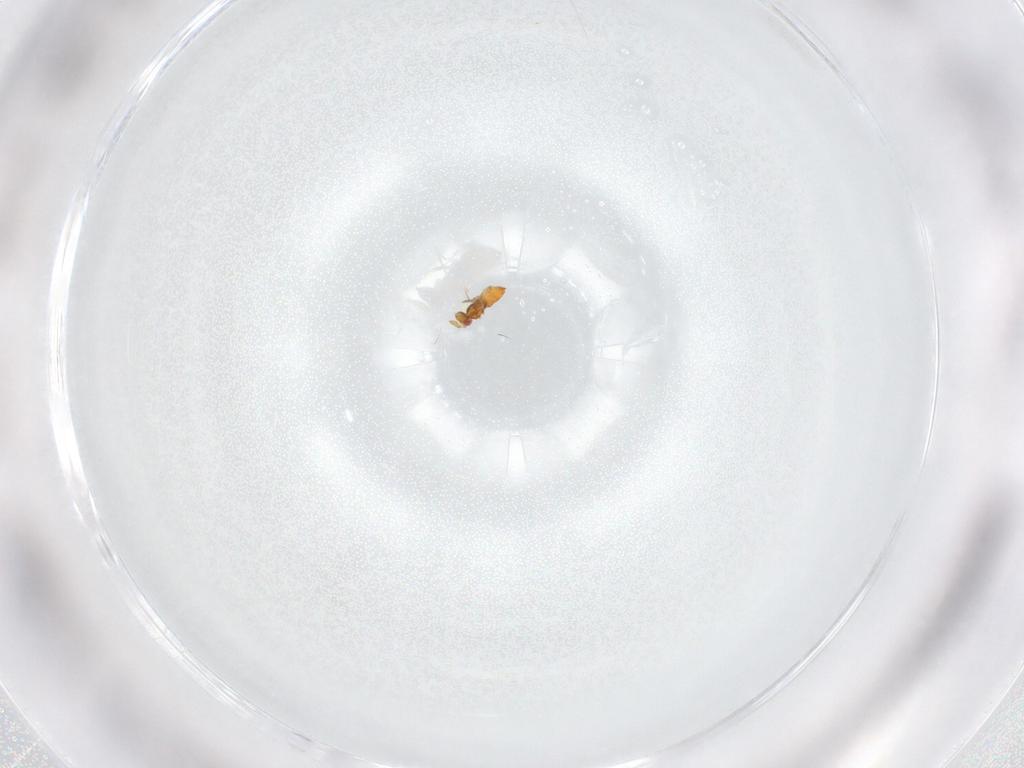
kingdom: Animalia
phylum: Arthropoda
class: Insecta
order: Hymenoptera
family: Trichogrammatidae
